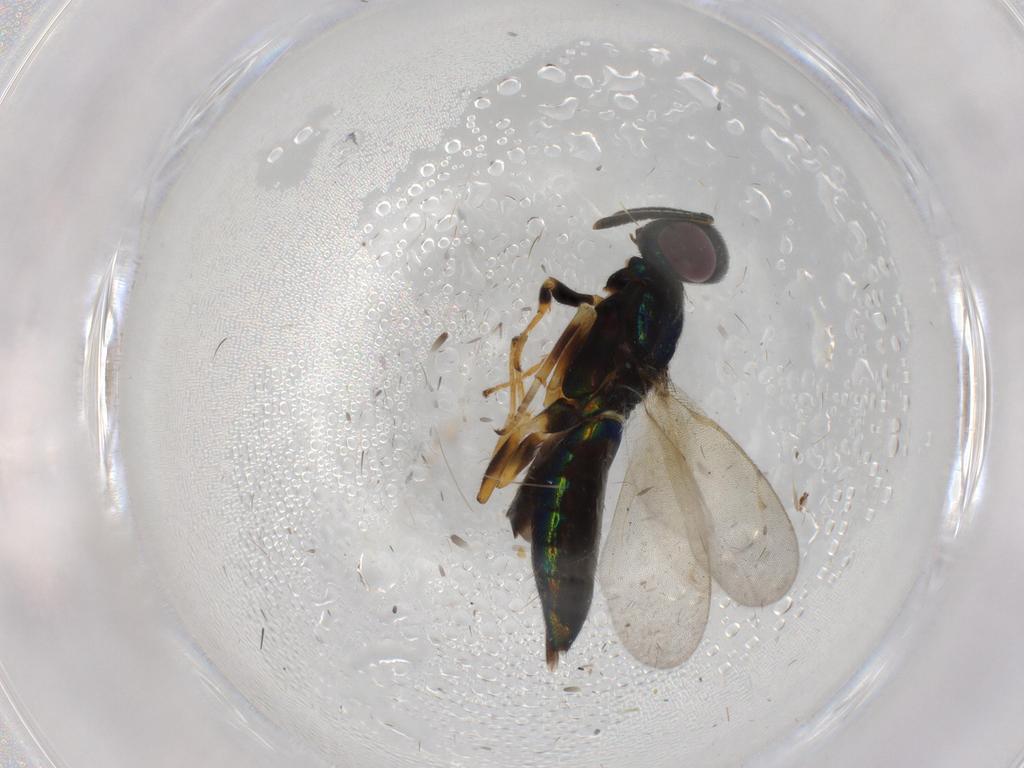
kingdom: Animalia
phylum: Arthropoda
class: Insecta
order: Hymenoptera
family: Eupelmidae
